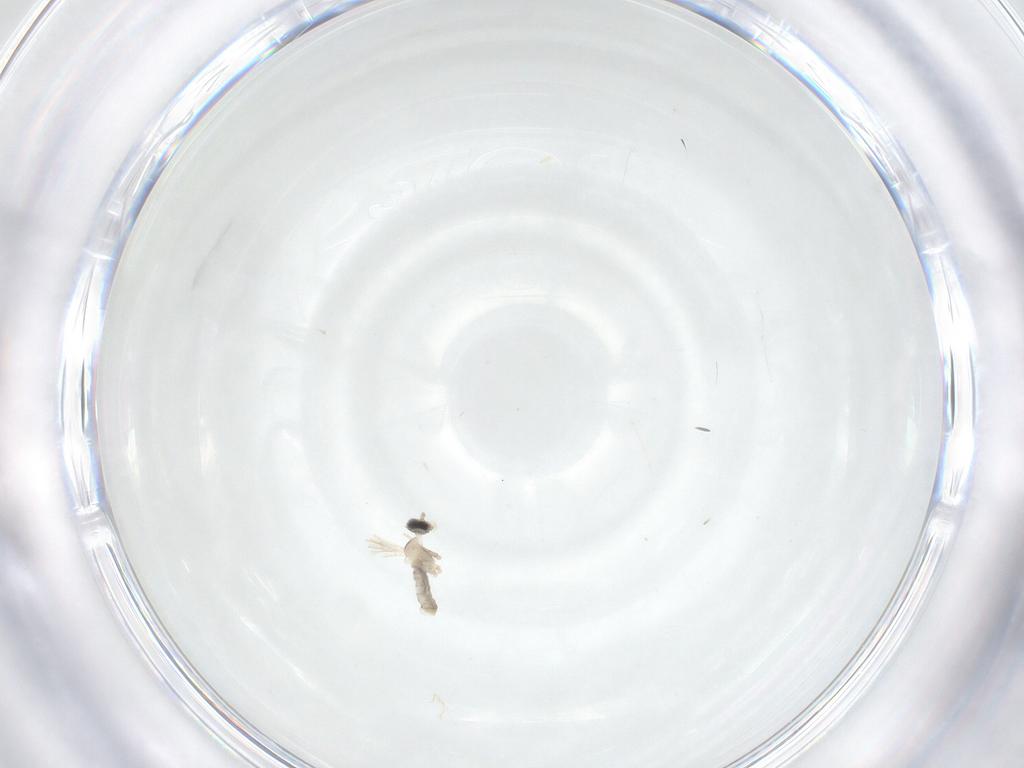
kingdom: Animalia
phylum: Arthropoda
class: Insecta
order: Diptera
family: Cecidomyiidae
